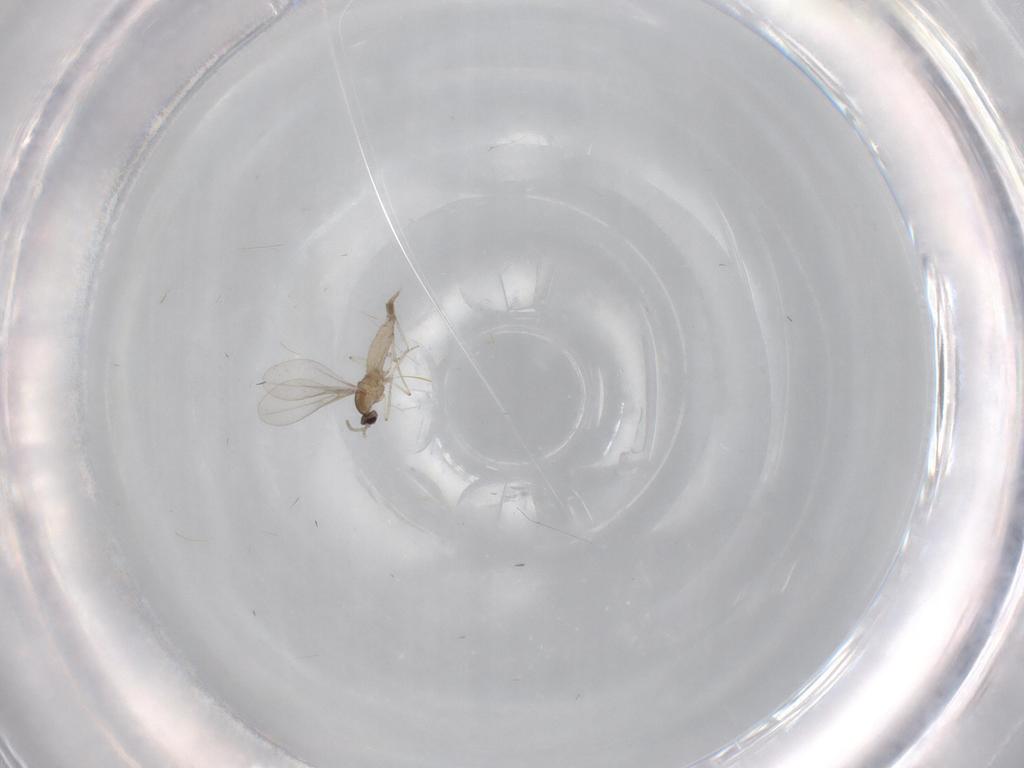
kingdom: Animalia
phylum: Arthropoda
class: Insecta
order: Diptera
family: Cecidomyiidae
